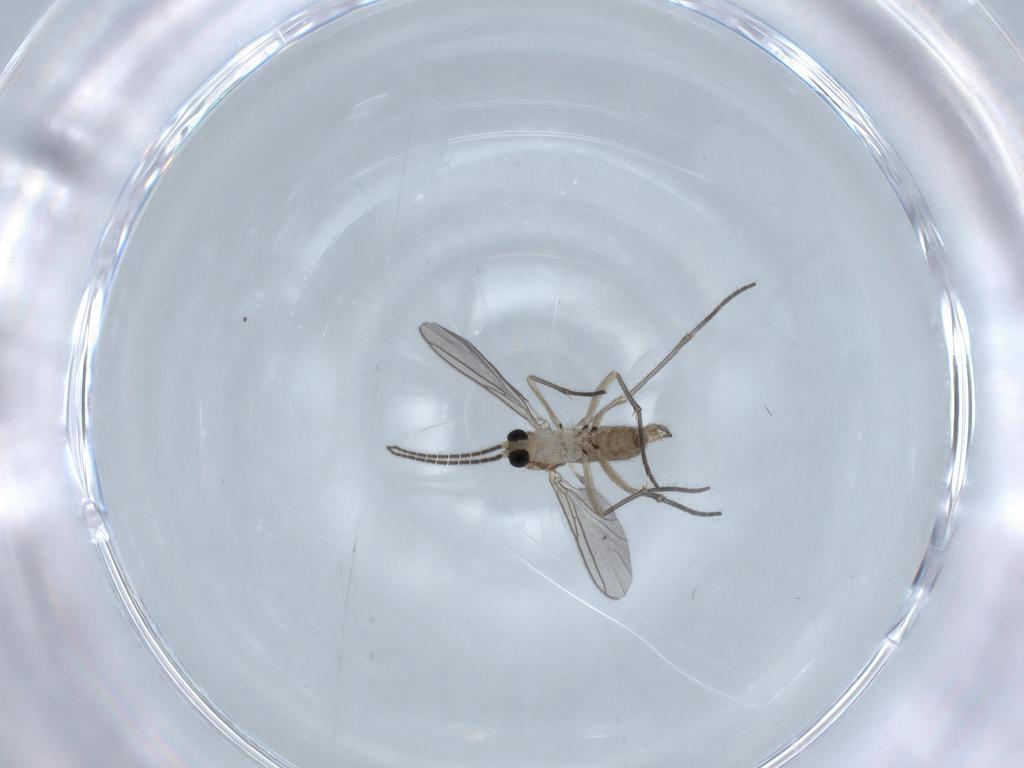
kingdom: Animalia
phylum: Arthropoda
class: Insecta
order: Diptera
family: Sciaridae
